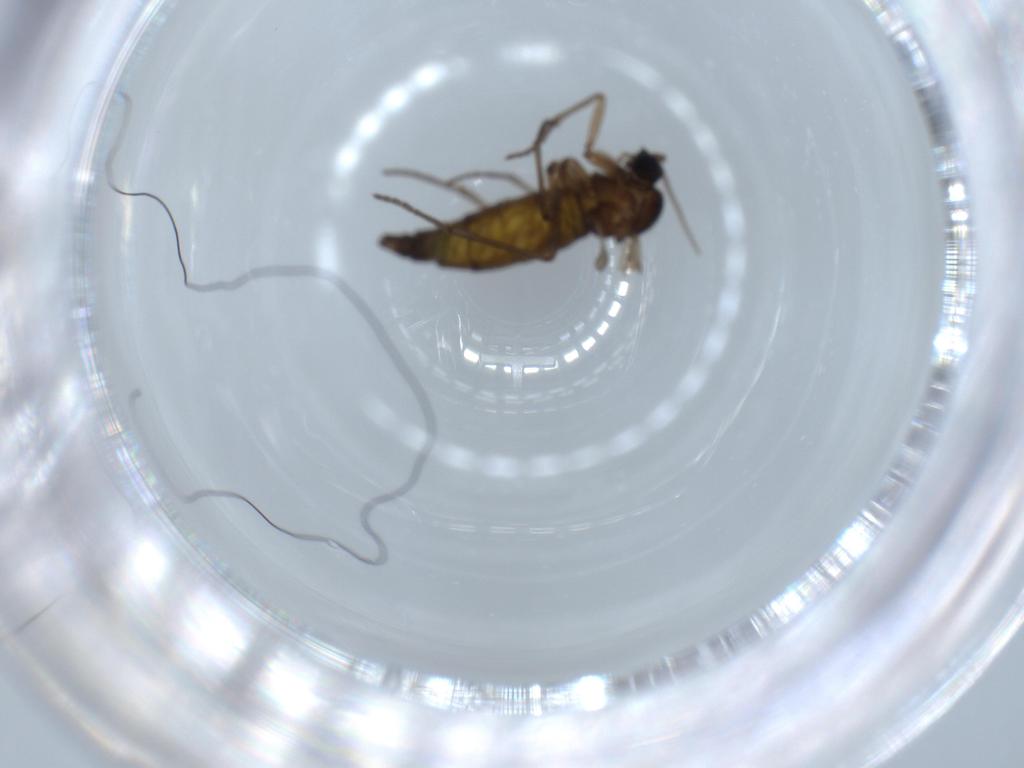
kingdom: Animalia
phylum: Arthropoda
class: Insecta
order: Diptera
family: Sciaridae
